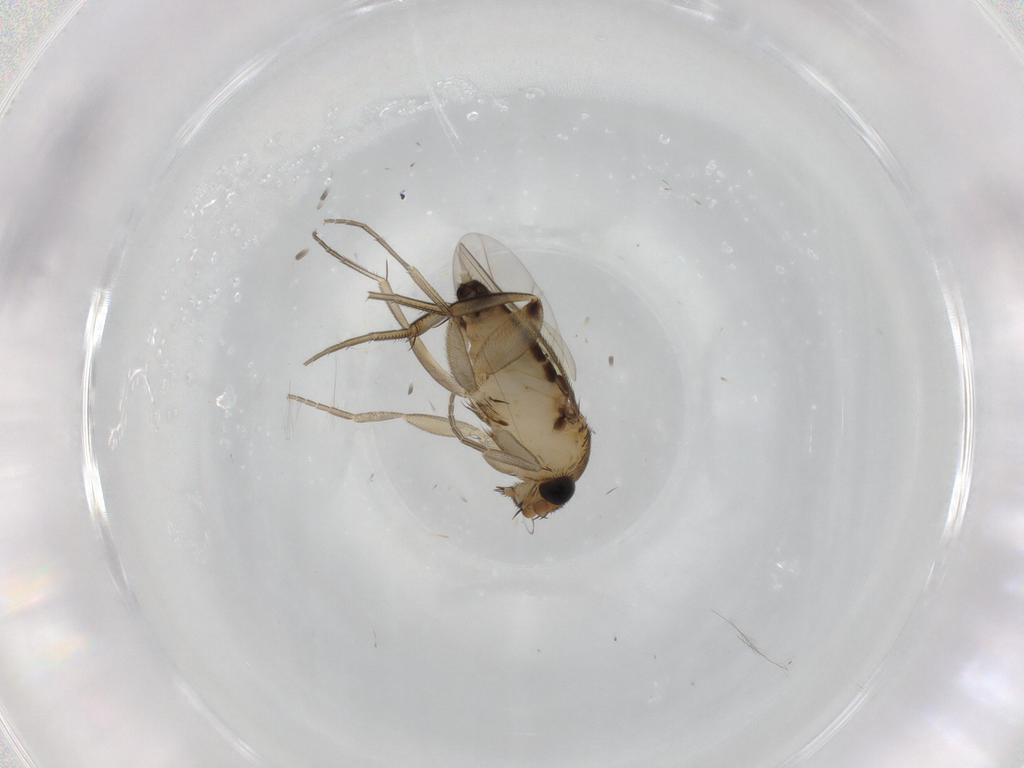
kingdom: Animalia
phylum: Arthropoda
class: Insecta
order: Diptera
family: Phoridae
